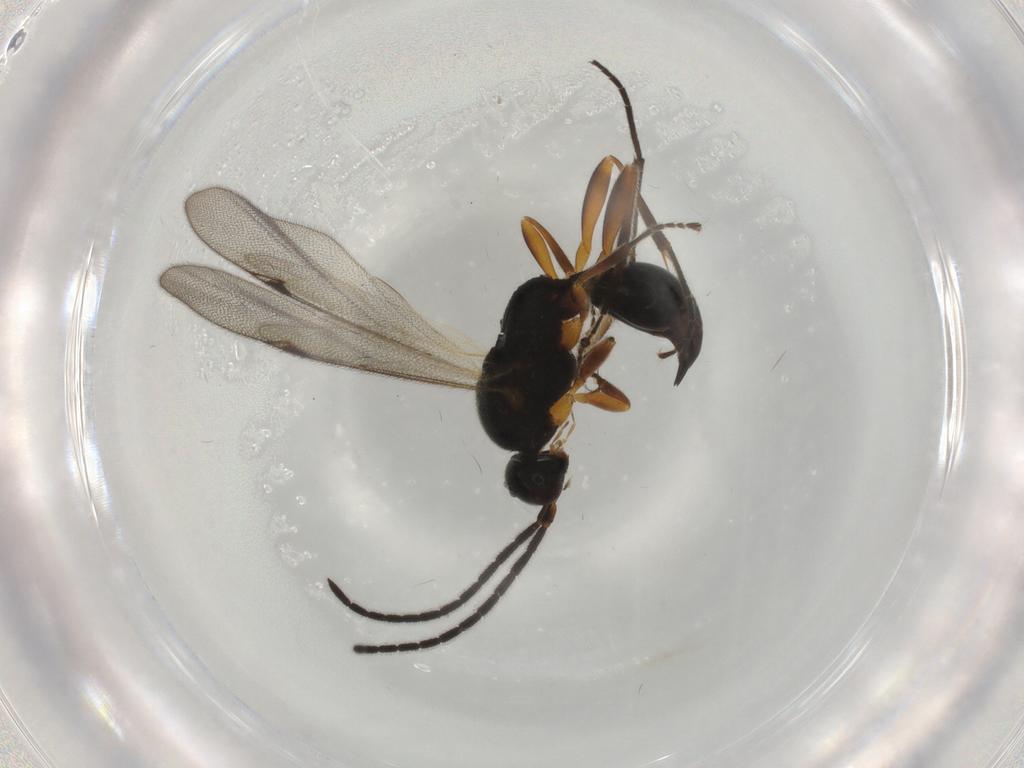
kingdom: Animalia
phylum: Arthropoda
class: Insecta
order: Hymenoptera
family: Proctotrupidae
